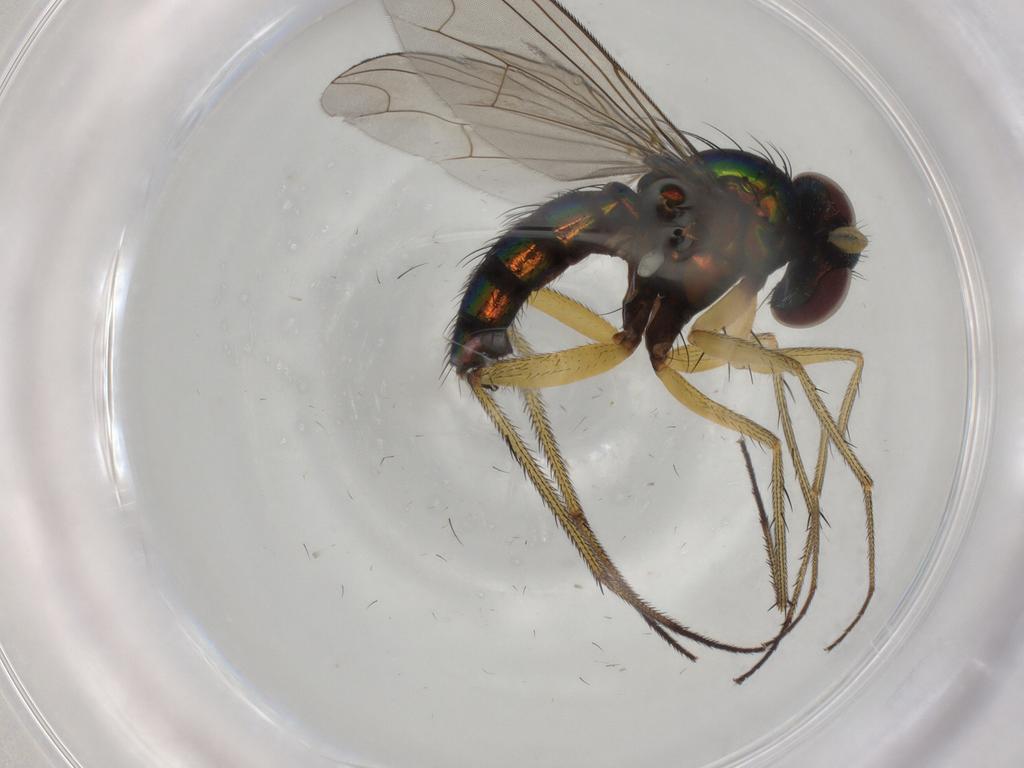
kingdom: Animalia
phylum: Arthropoda
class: Insecta
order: Diptera
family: Dolichopodidae
